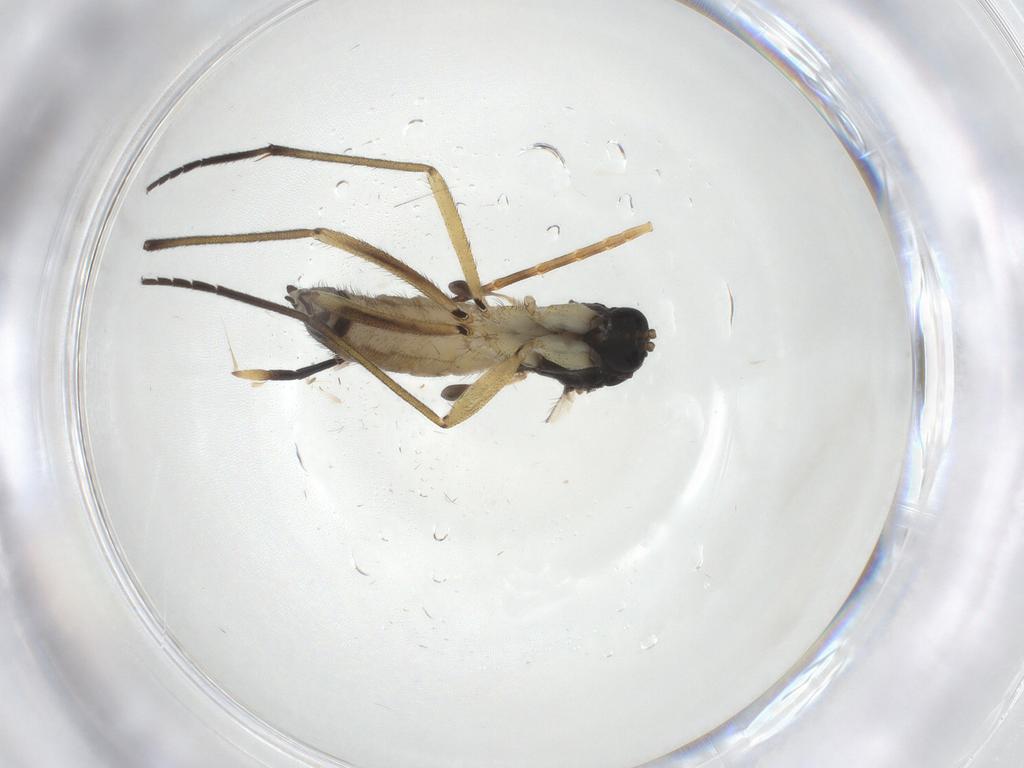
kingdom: Animalia
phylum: Arthropoda
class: Insecta
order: Diptera
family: Sciaridae
